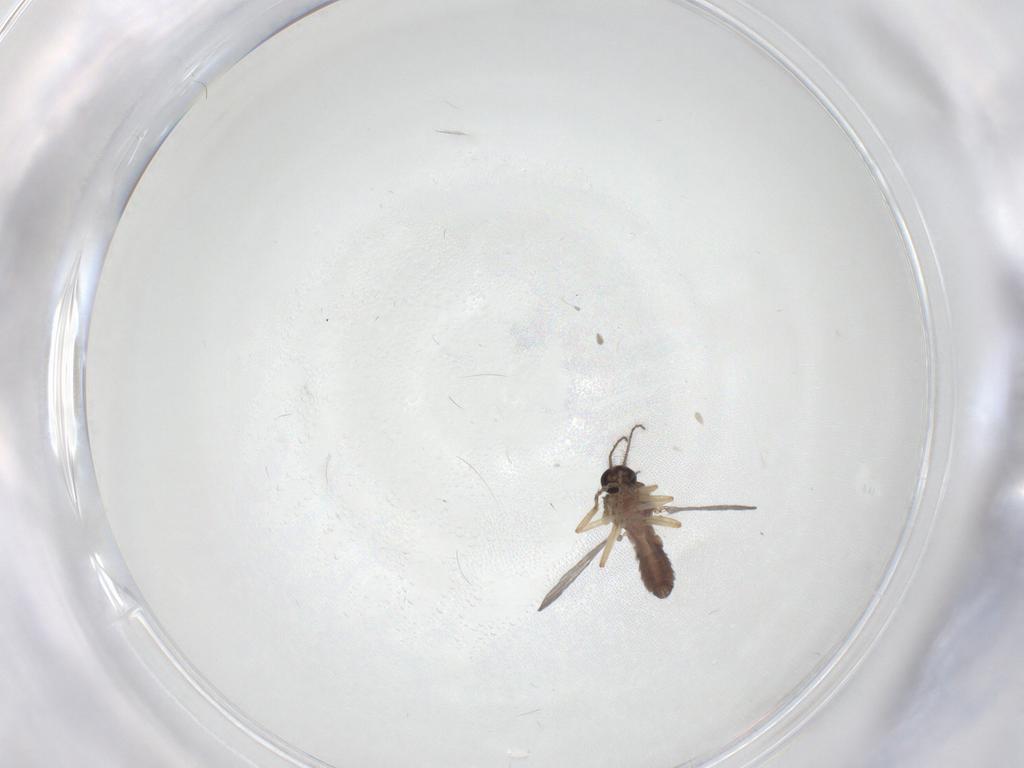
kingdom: Animalia
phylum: Arthropoda
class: Insecta
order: Diptera
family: Ceratopogonidae
